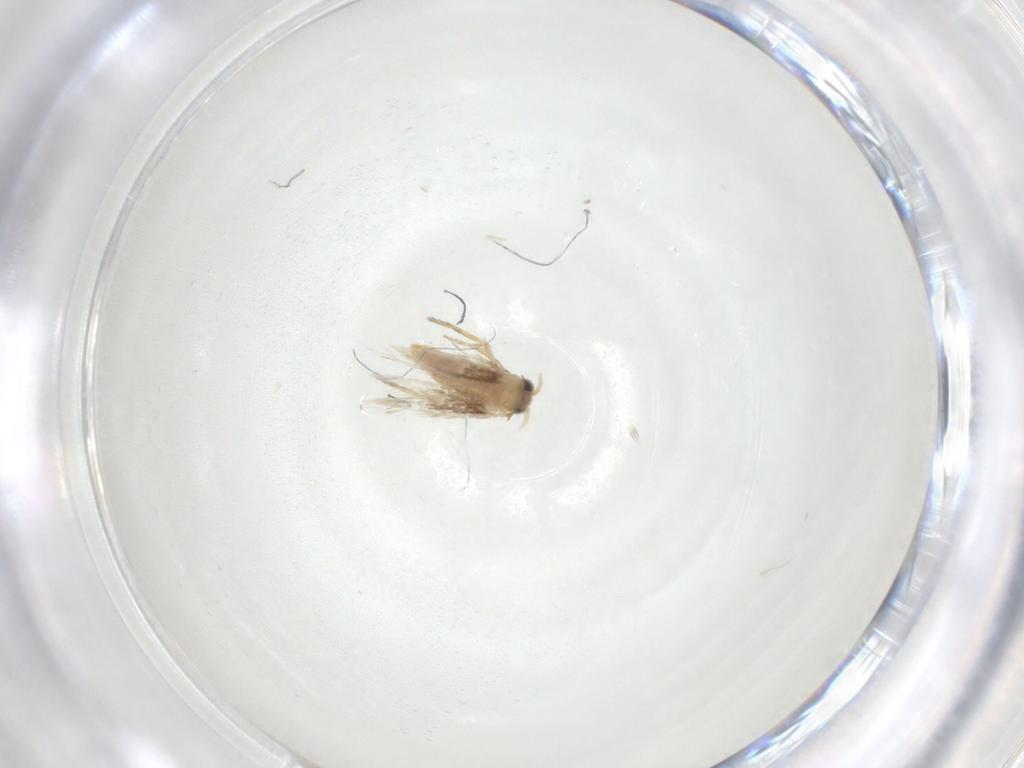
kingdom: Animalia
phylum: Arthropoda
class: Insecta
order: Lepidoptera
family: Nepticulidae
